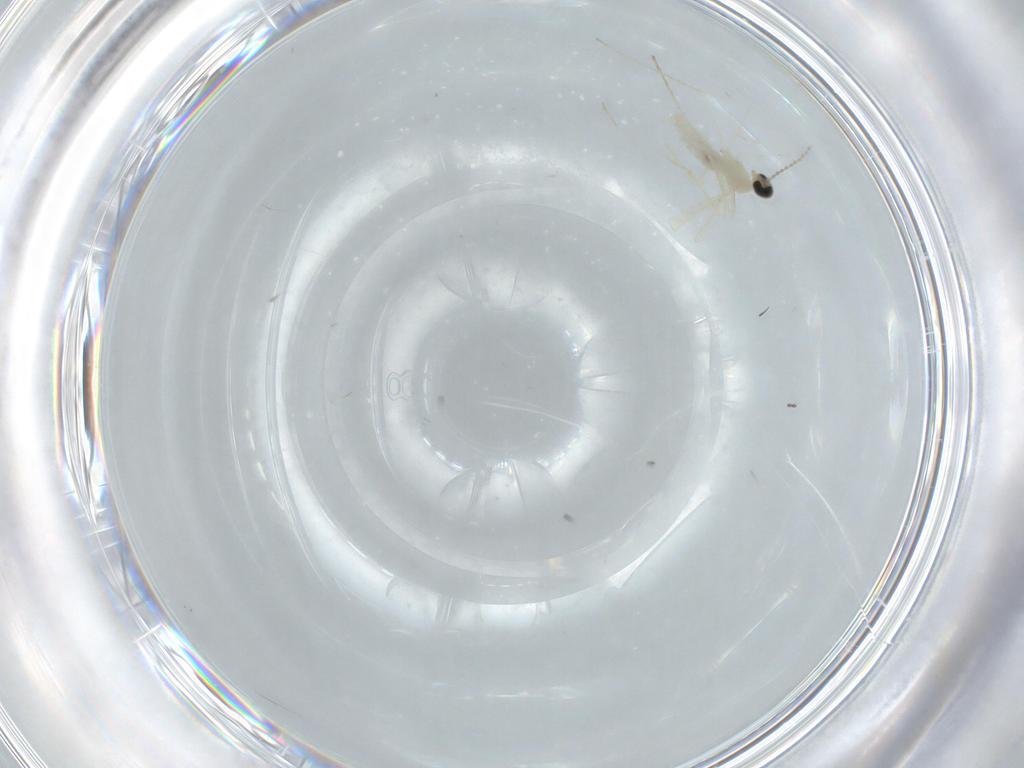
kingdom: Animalia
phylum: Arthropoda
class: Insecta
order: Diptera
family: Cecidomyiidae
